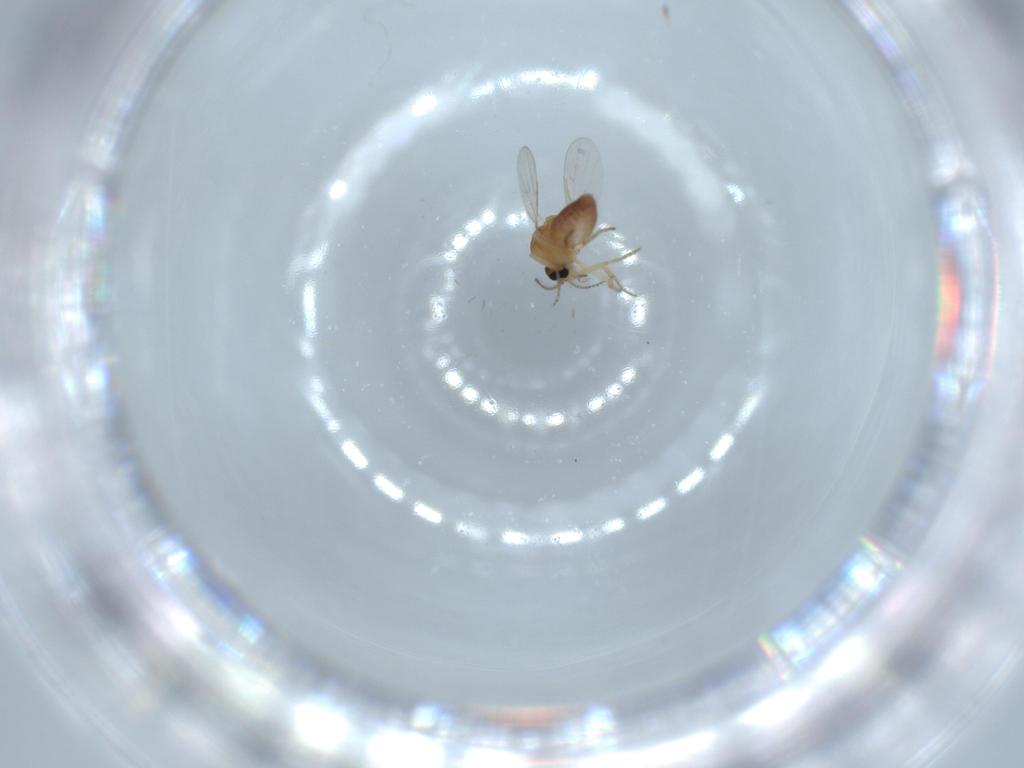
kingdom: Animalia
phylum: Arthropoda
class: Insecta
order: Diptera
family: Ceratopogonidae
